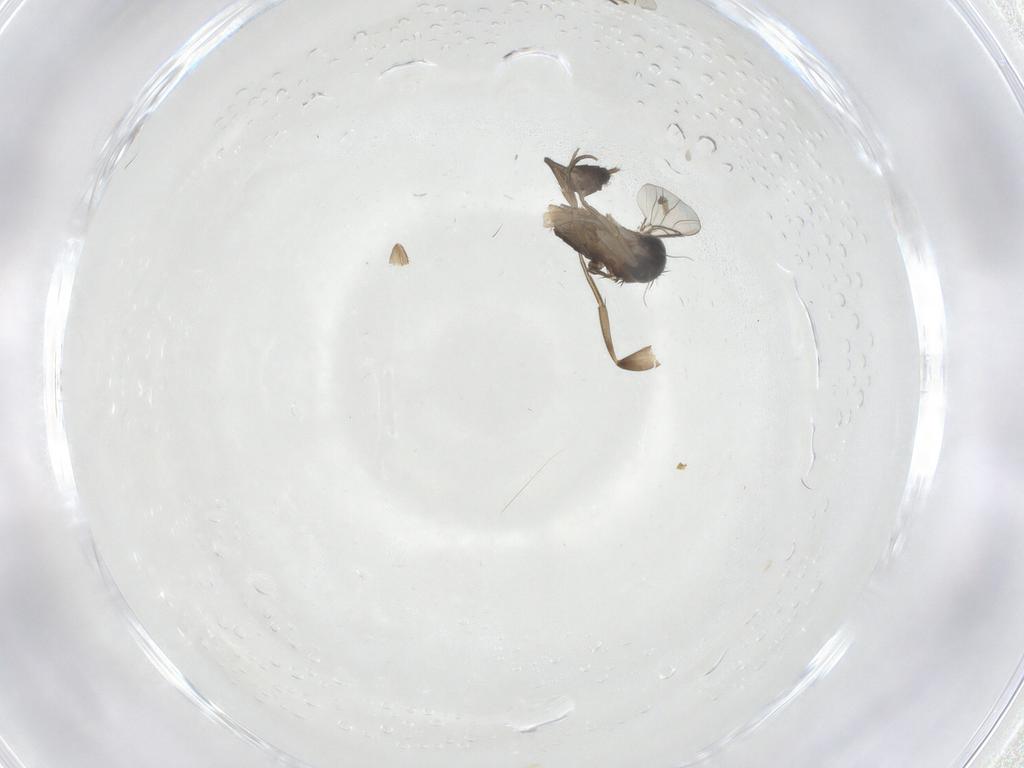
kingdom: Animalia
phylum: Arthropoda
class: Insecta
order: Diptera
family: Phoridae
